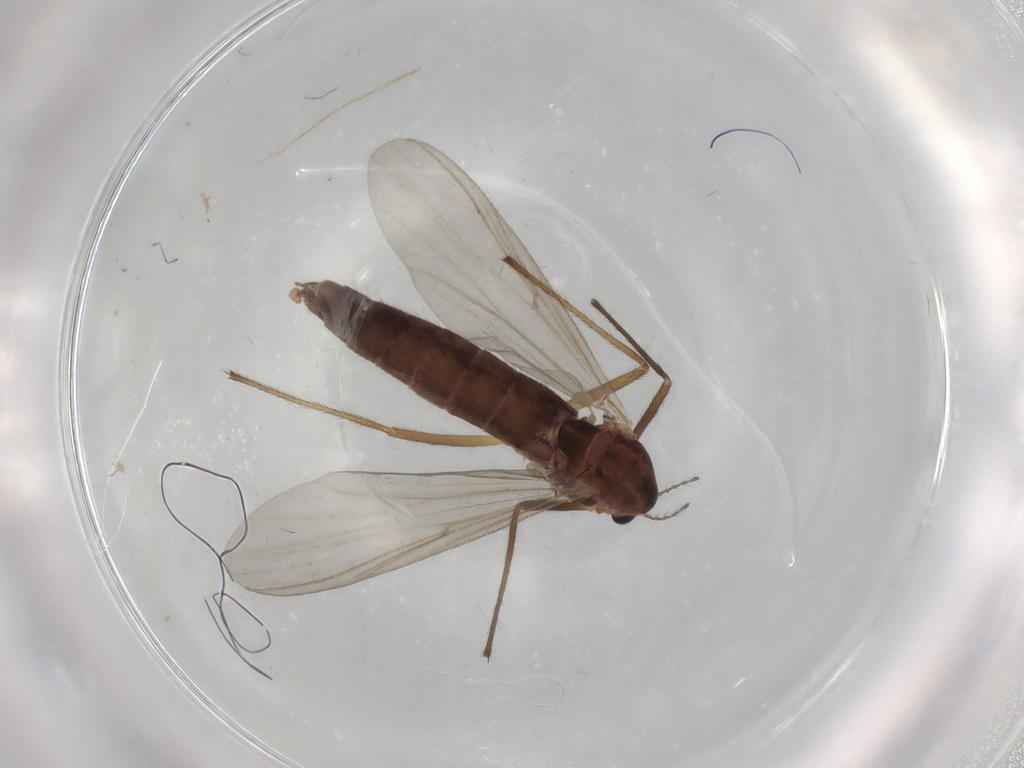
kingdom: Animalia
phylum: Arthropoda
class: Insecta
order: Diptera
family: Chironomidae
